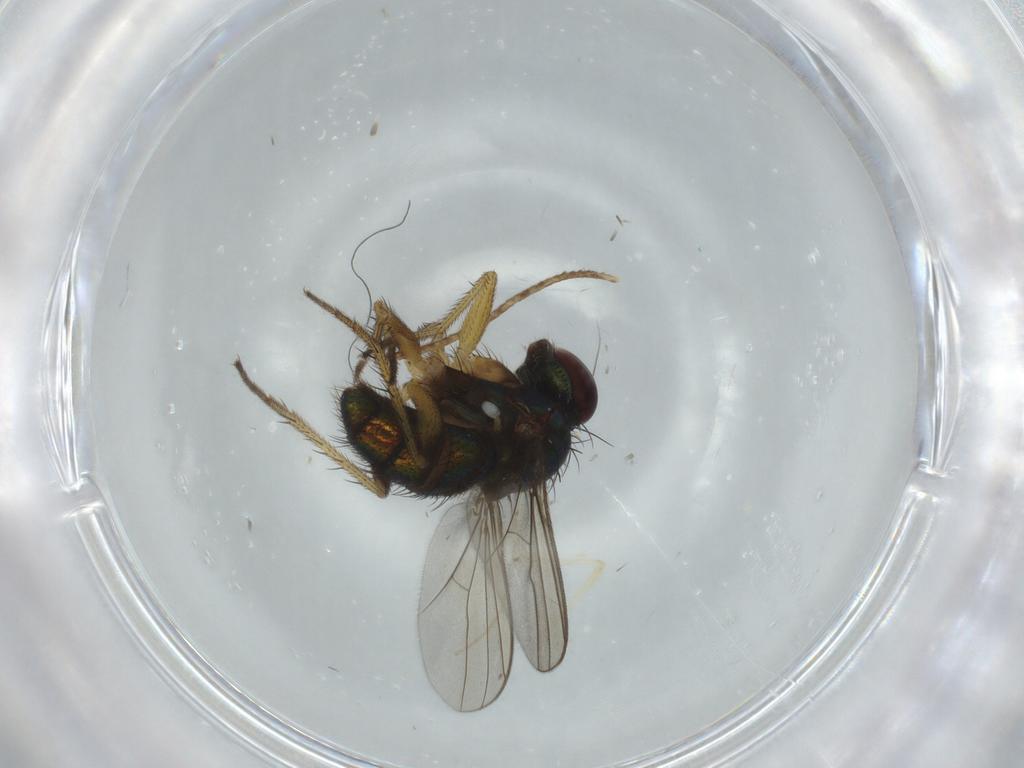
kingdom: Animalia
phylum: Arthropoda
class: Insecta
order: Diptera
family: Dolichopodidae
